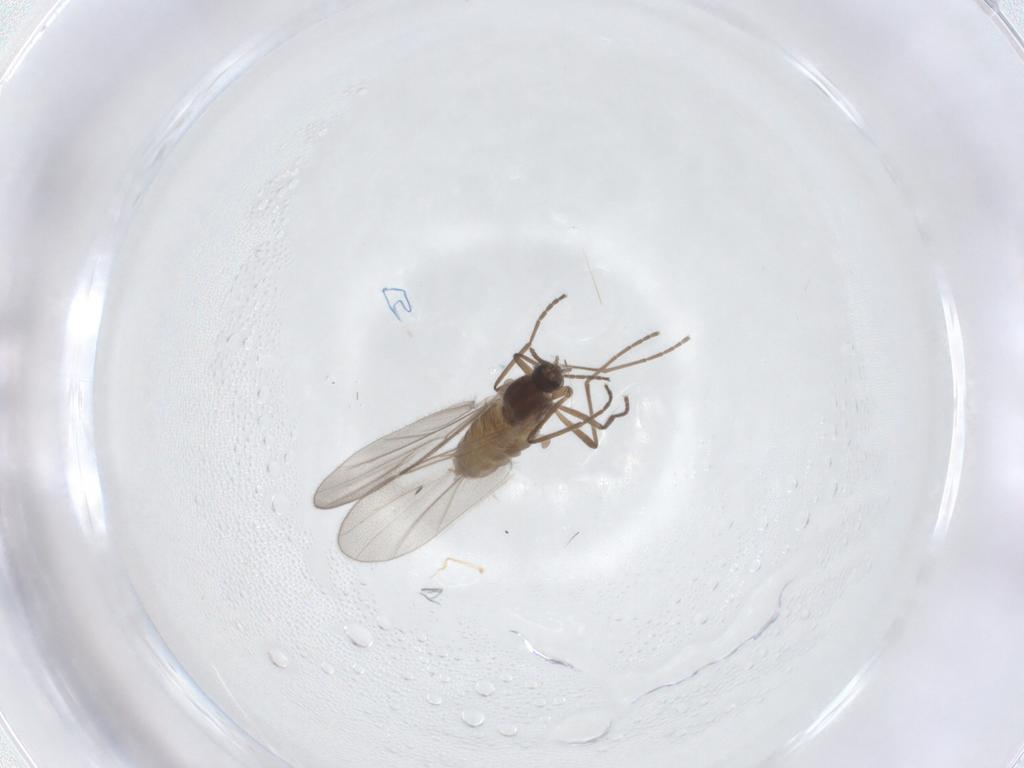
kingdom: Animalia
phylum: Arthropoda
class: Insecta
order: Diptera
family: Cecidomyiidae
